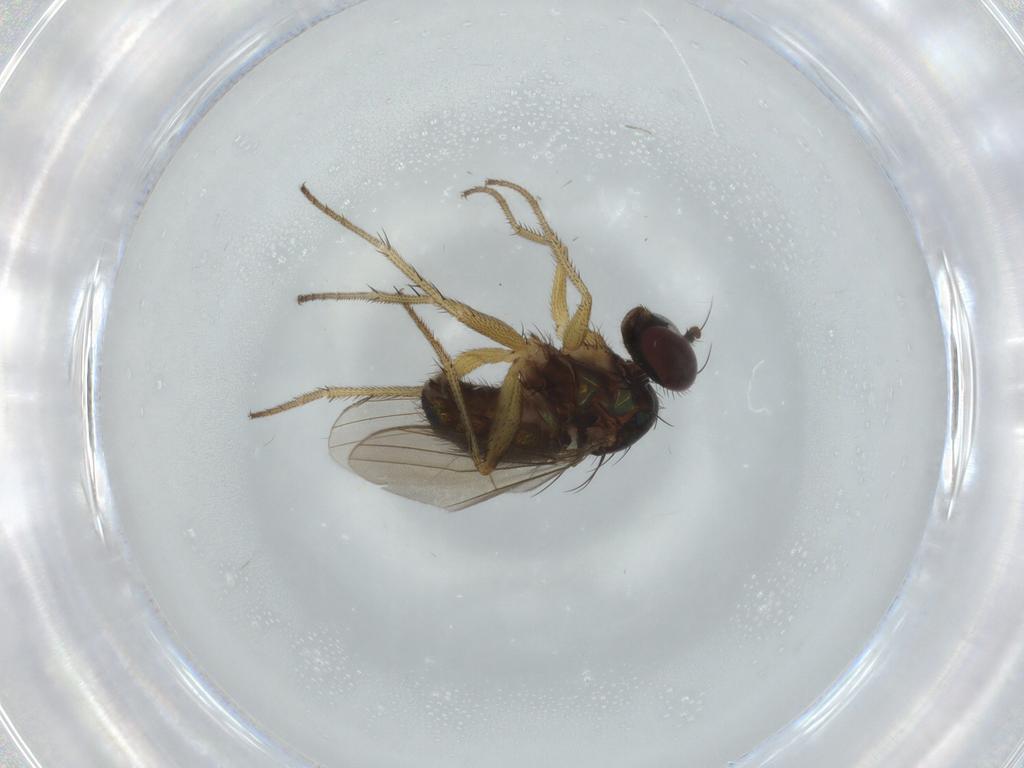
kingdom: Animalia
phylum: Arthropoda
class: Insecta
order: Diptera
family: Dolichopodidae
